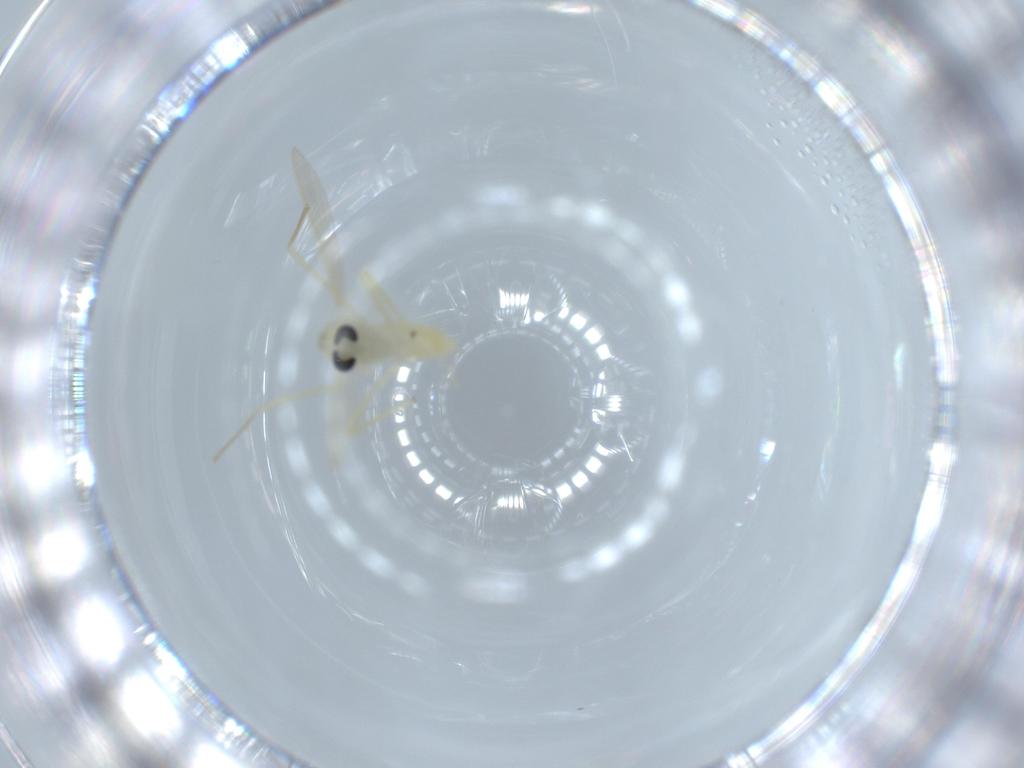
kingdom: Animalia
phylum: Arthropoda
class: Insecta
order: Diptera
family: Chironomidae
